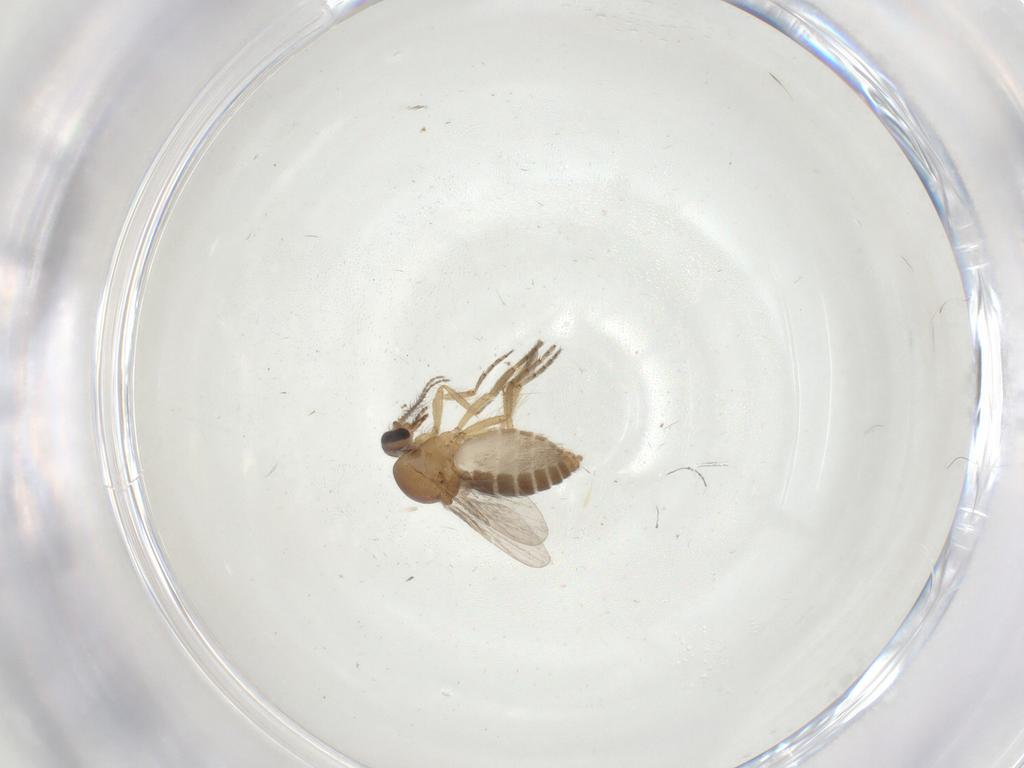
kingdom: Animalia
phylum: Arthropoda
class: Insecta
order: Diptera
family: Ceratopogonidae
